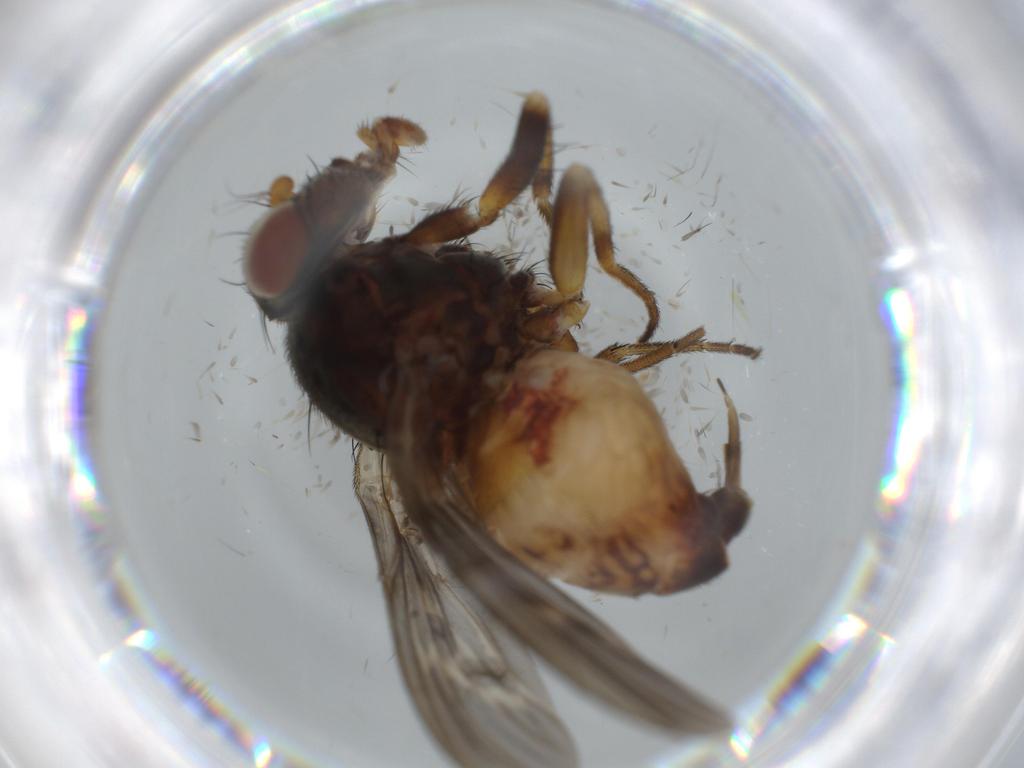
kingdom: Animalia
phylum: Arthropoda
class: Insecta
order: Diptera
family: Odiniidae
